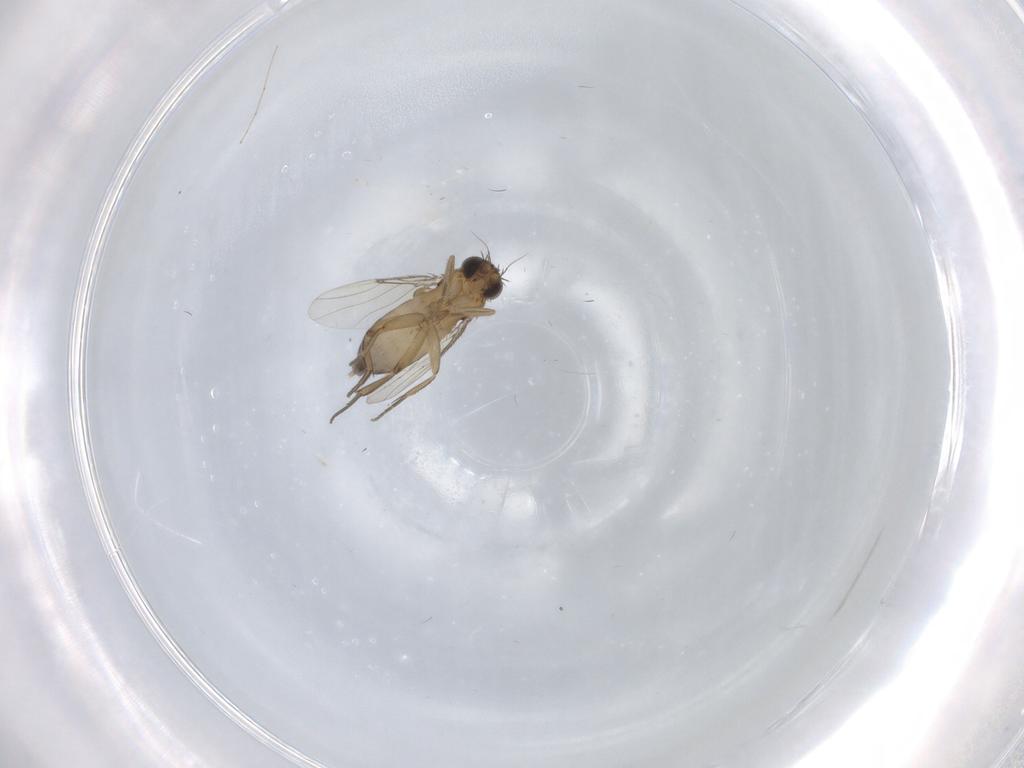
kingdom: Animalia
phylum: Arthropoda
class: Insecta
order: Diptera
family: Phoridae
